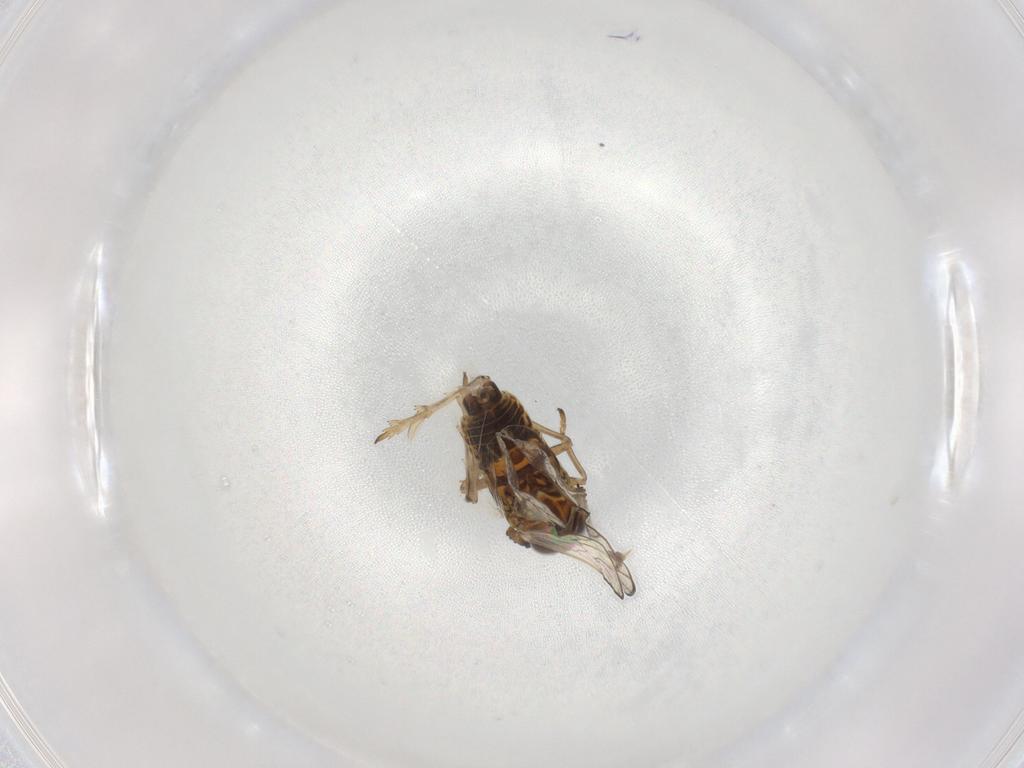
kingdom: Animalia
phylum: Arthropoda
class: Insecta
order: Hemiptera
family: Delphacidae
